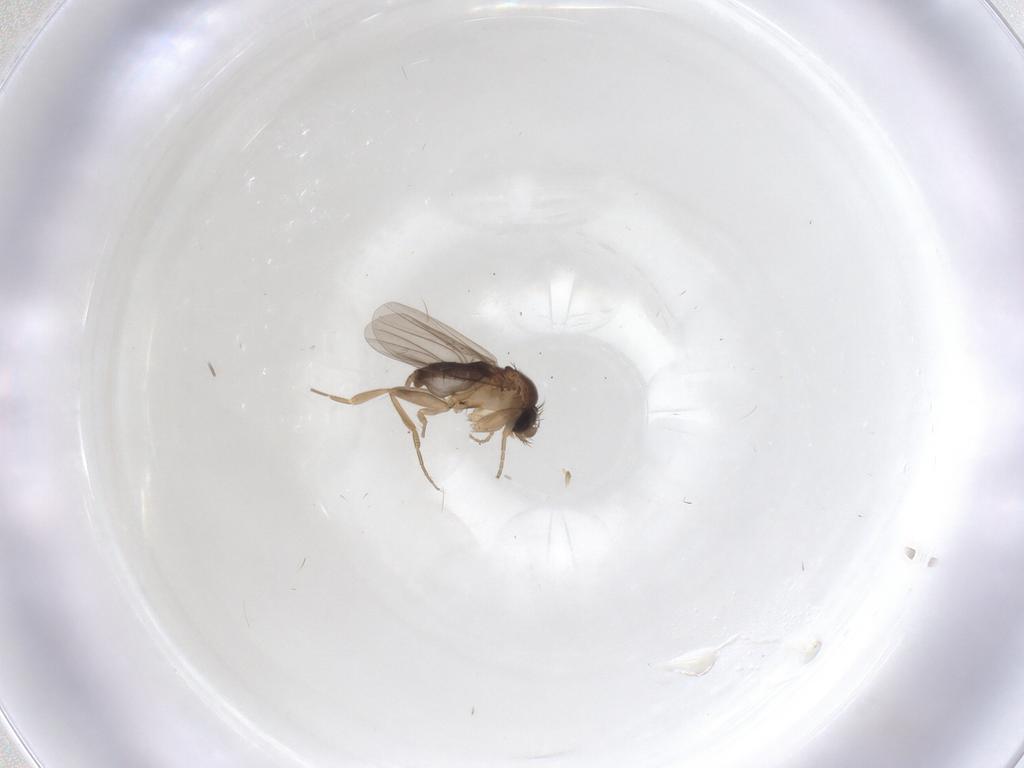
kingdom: Animalia
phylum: Arthropoda
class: Insecta
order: Diptera
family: Phoridae
